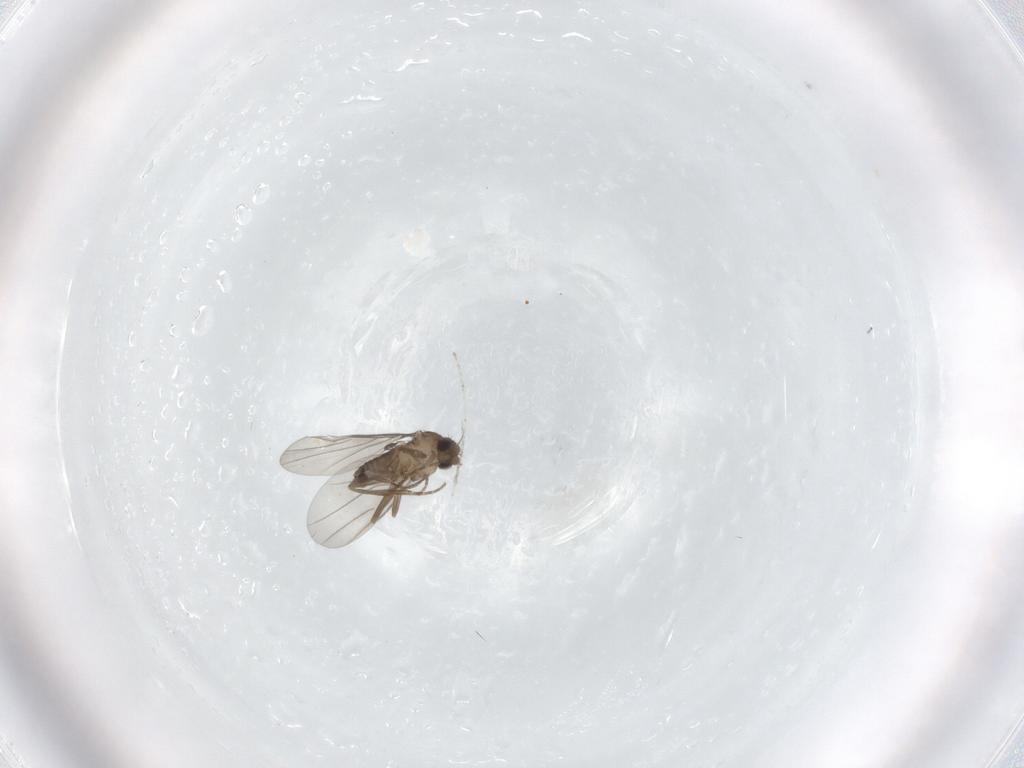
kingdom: Animalia
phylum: Arthropoda
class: Insecta
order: Diptera
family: Cecidomyiidae
